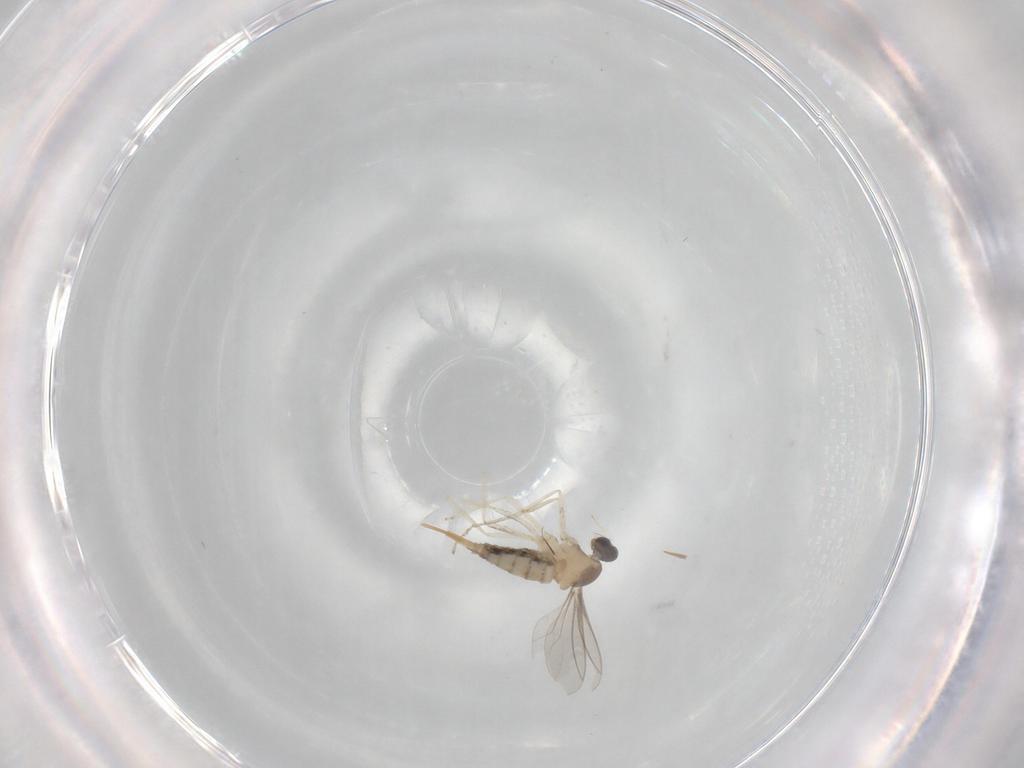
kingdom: Animalia
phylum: Arthropoda
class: Insecta
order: Diptera
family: Cecidomyiidae
